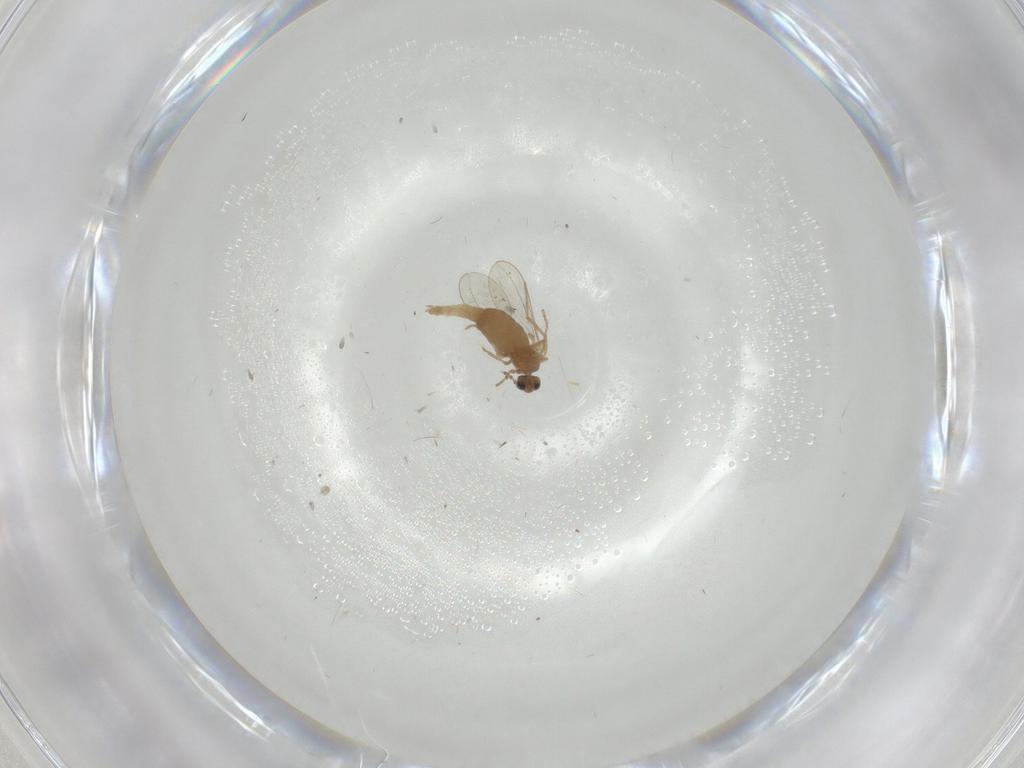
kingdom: Animalia
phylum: Arthropoda
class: Insecta
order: Diptera
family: Cecidomyiidae
